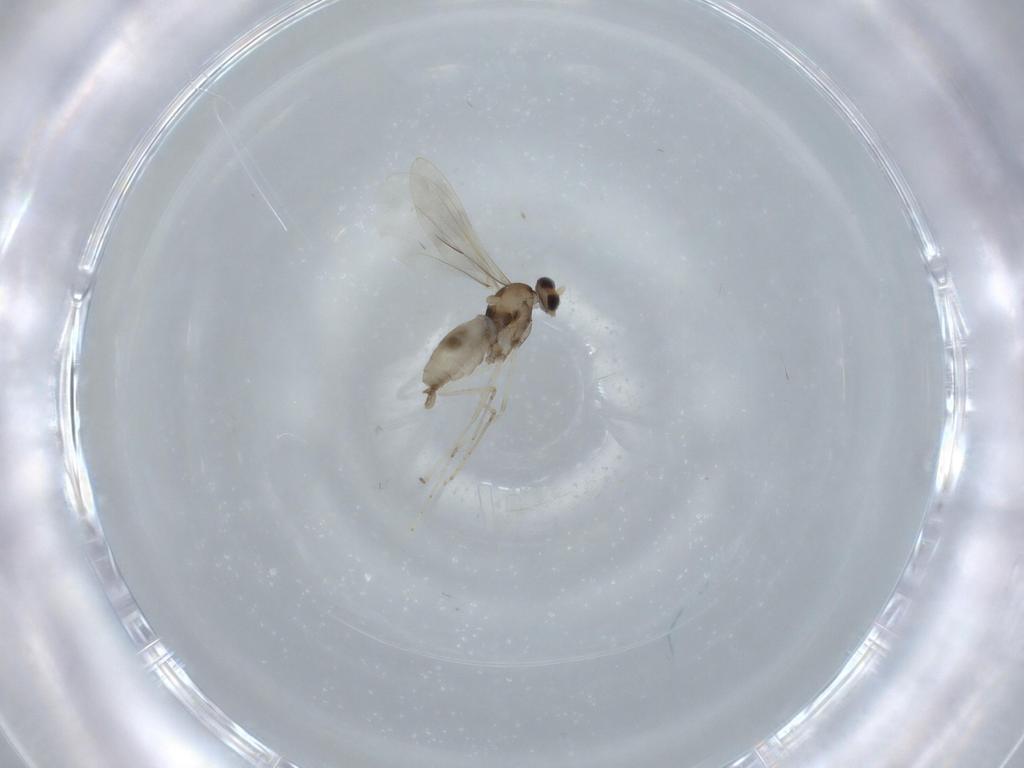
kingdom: Animalia
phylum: Arthropoda
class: Insecta
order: Diptera
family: Cecidomyiidae
